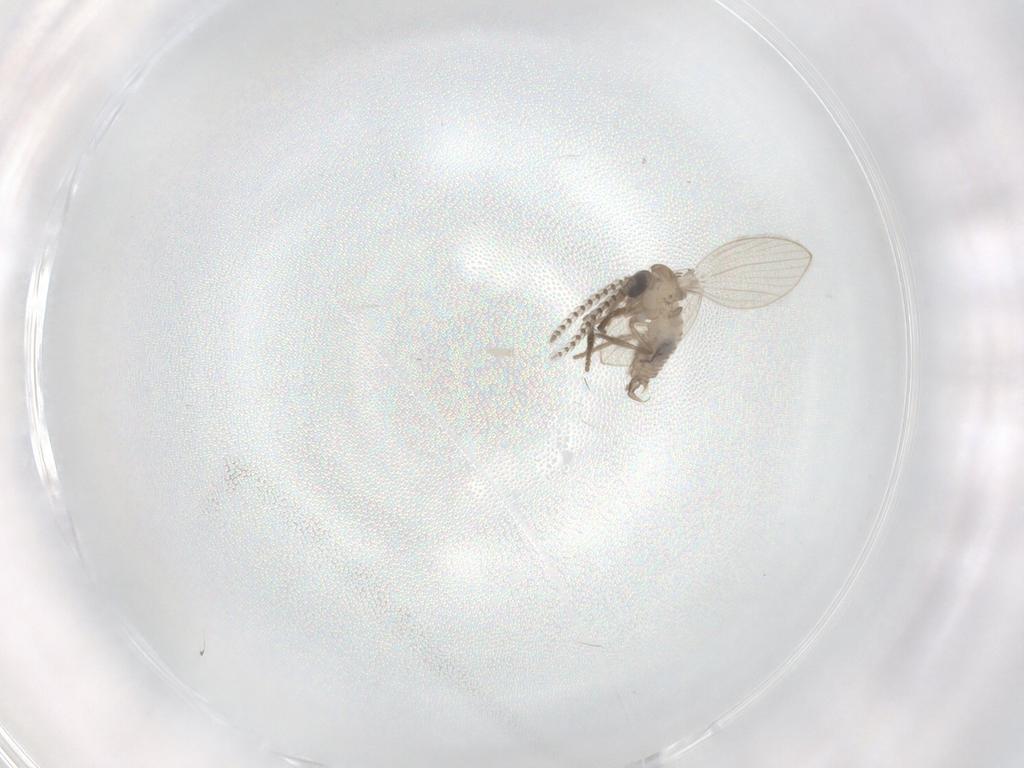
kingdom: Animalia
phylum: Arthropoda
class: Insecta
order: Diptera
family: Psychodidae
